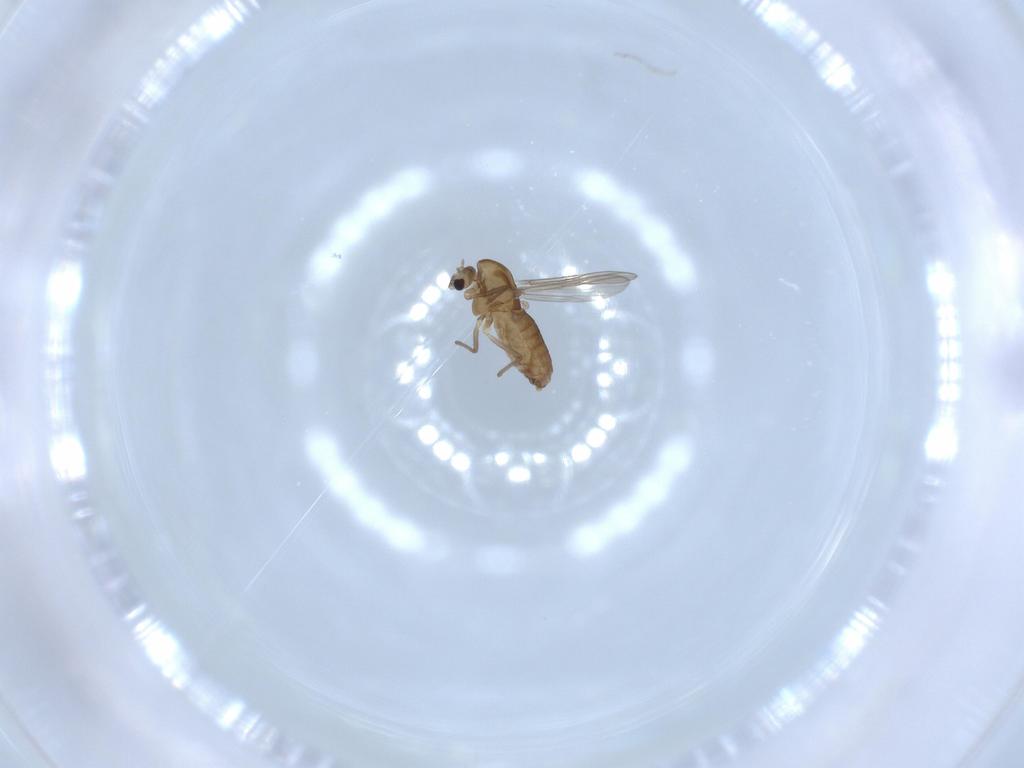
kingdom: Animalia
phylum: Arthropoda
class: Insecta
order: Diptera
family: Chironomidae
